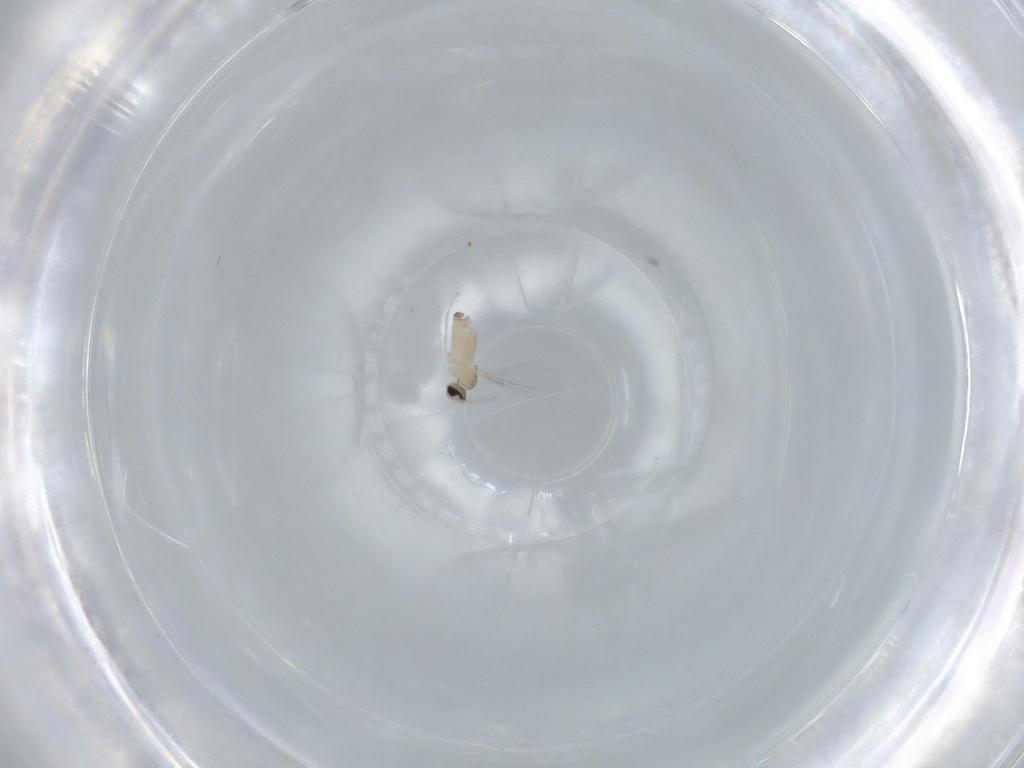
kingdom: Animalia
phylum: Arthropoda
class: Insecta
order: Diptera
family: Cecidomyiidae
